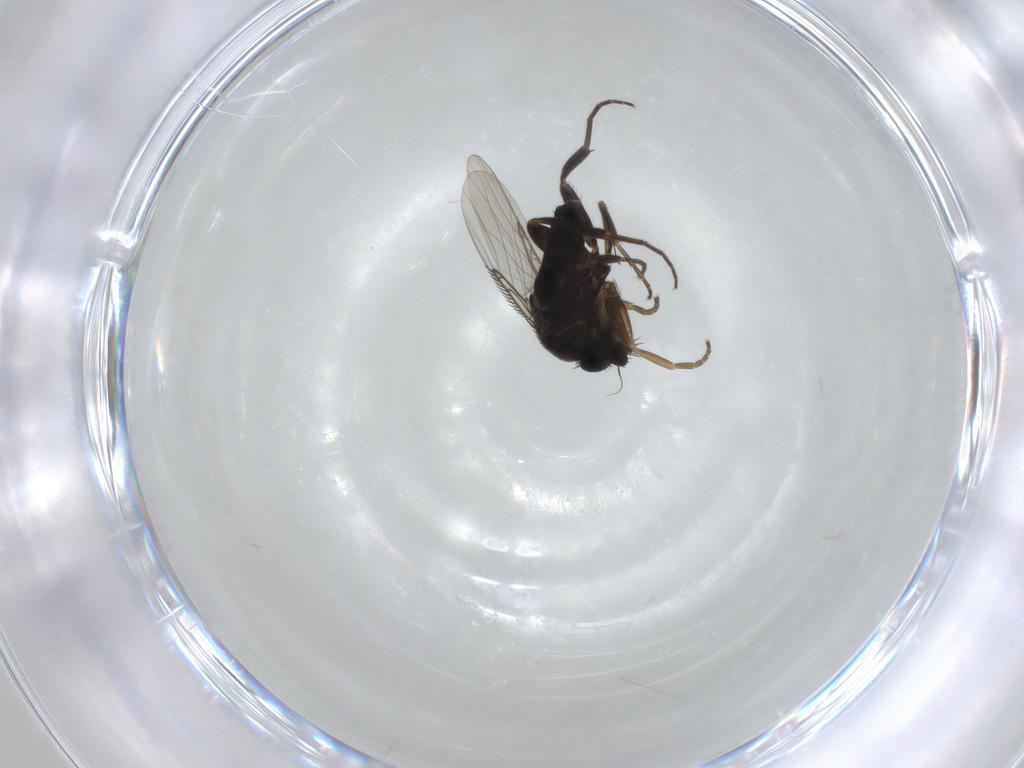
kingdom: Animalia
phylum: Arthropoda
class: Insecta
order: Diptera
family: Phoridae
